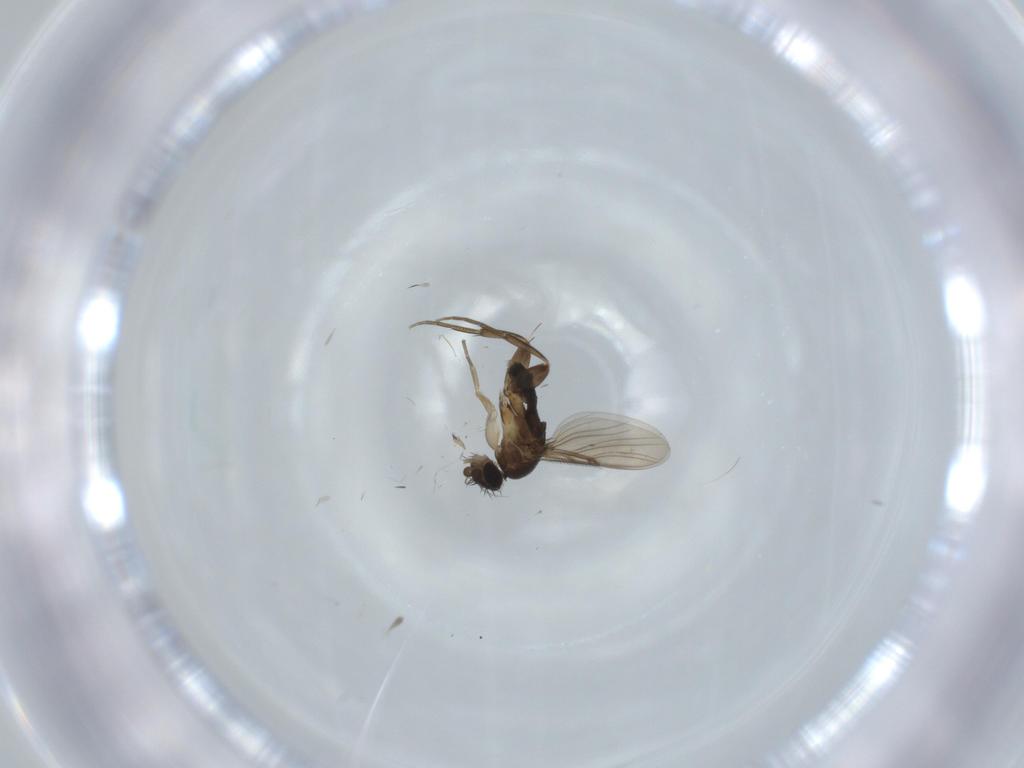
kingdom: Animalia
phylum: Arthropoda
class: Insecta
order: Diptera
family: Phoridae
